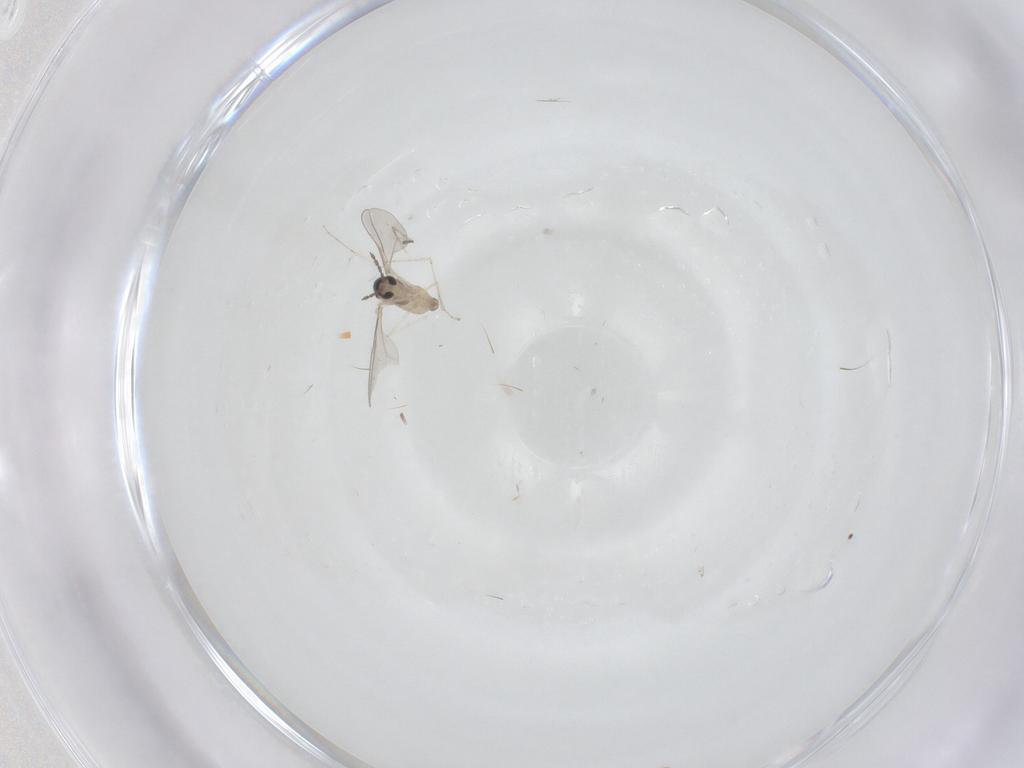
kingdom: Animalia
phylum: Arthropoda
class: Insecta
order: Diptera
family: Cecidomyiidae
